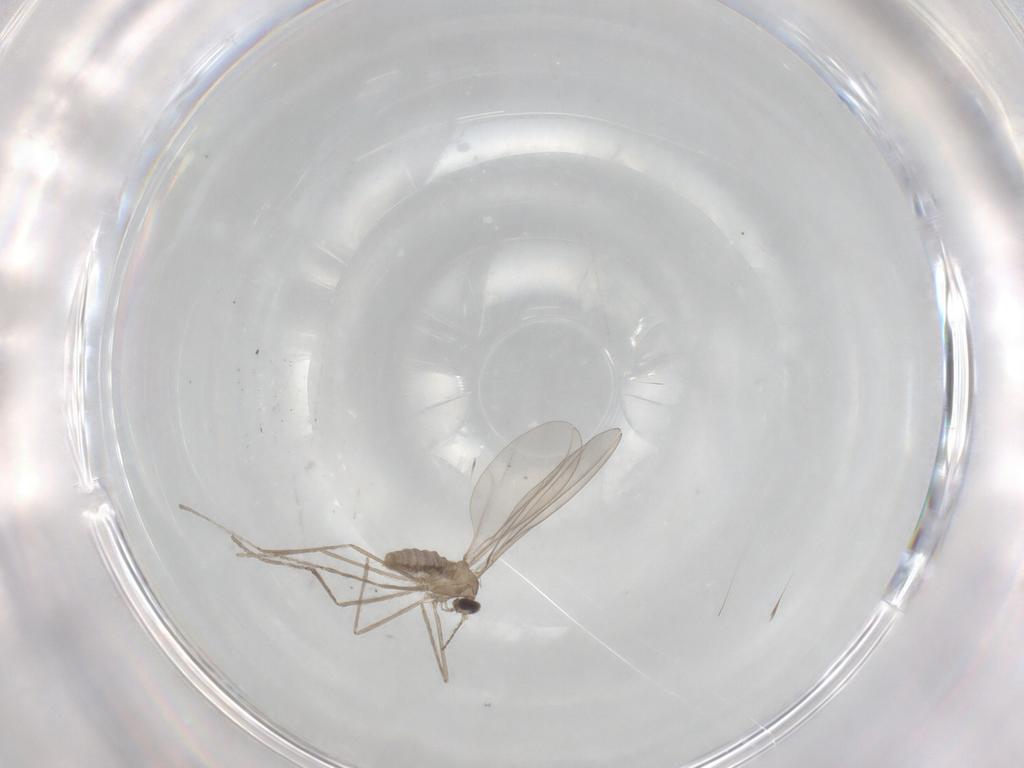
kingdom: Animalia
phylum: Arthropoda
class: Insecta
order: Diptera
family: Cecidomyiidae
